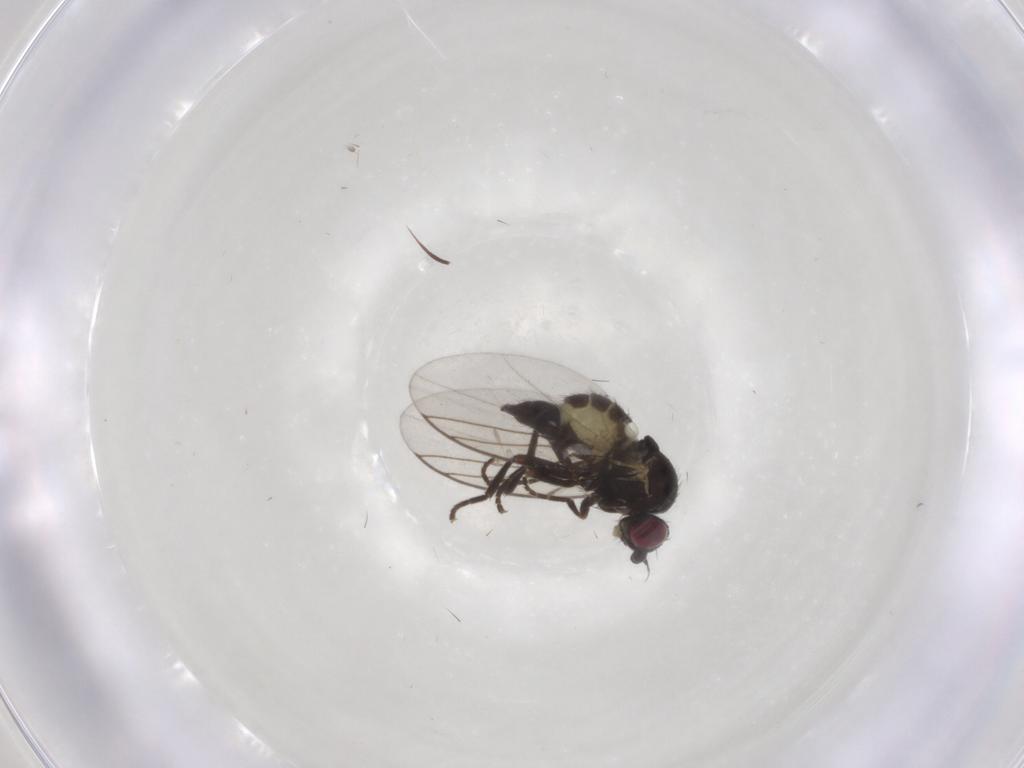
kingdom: Animalia
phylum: Arthropoda
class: Insecta
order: Diptera
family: Agromyzidae
